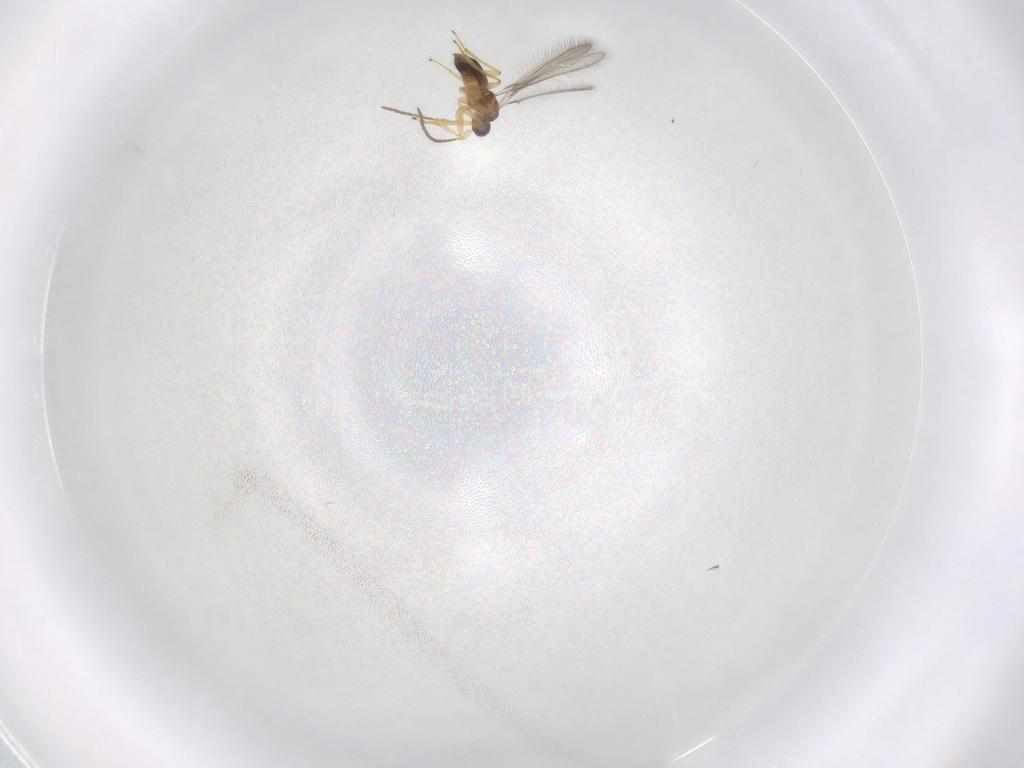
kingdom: Animalia
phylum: Arthropoda
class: Insecta
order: Hymenoptera
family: Mymaridae
